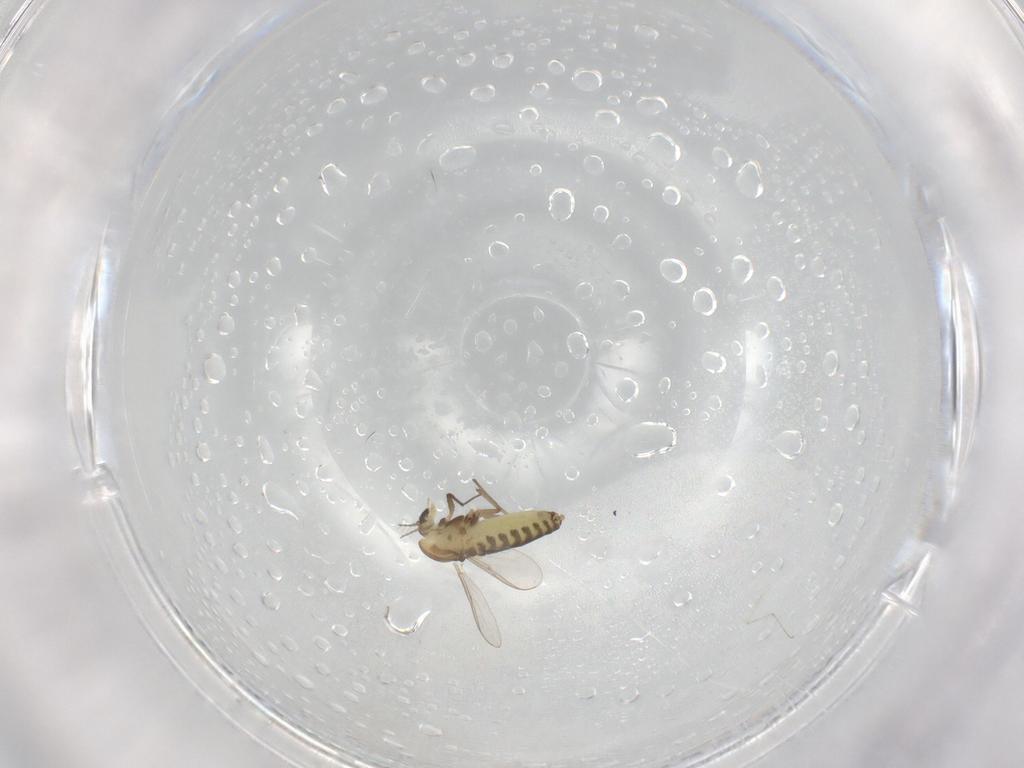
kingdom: Animalia
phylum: Arthropoda
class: Insecta
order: Diptera
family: Chironomidae
